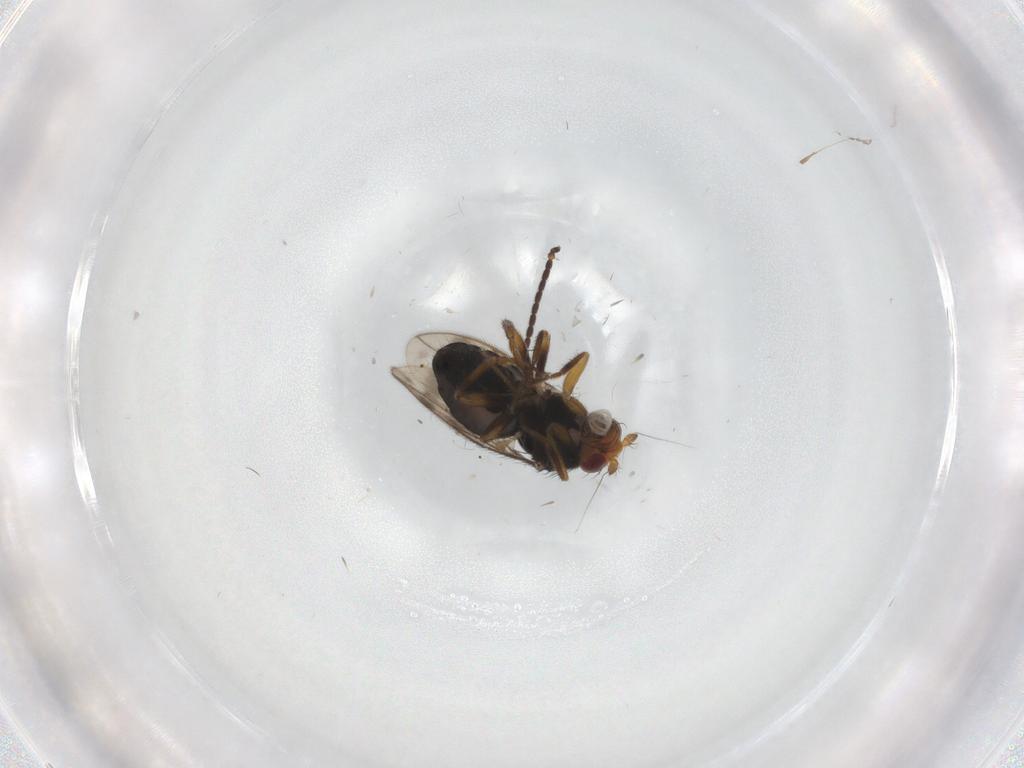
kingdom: Animalia
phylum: Arthropoda
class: Insecta
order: Diptera
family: Sphaeroceridae
